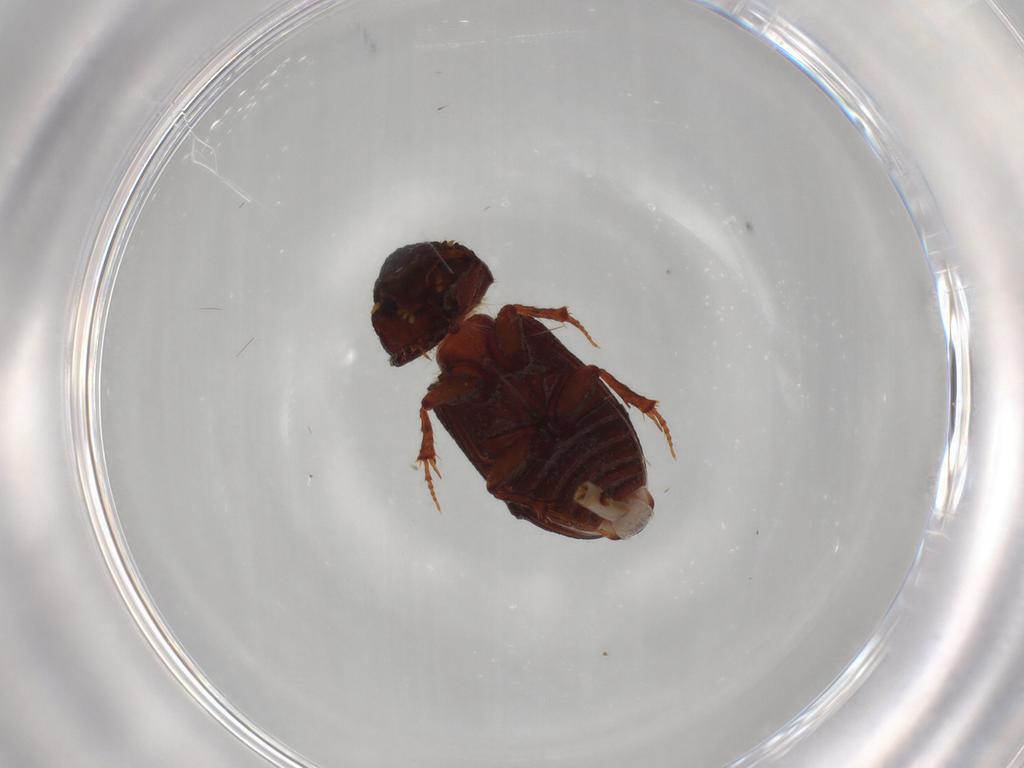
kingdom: Animalia
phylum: Arthropoda
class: Insecta
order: Coleoptera
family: Scarabaeidae
